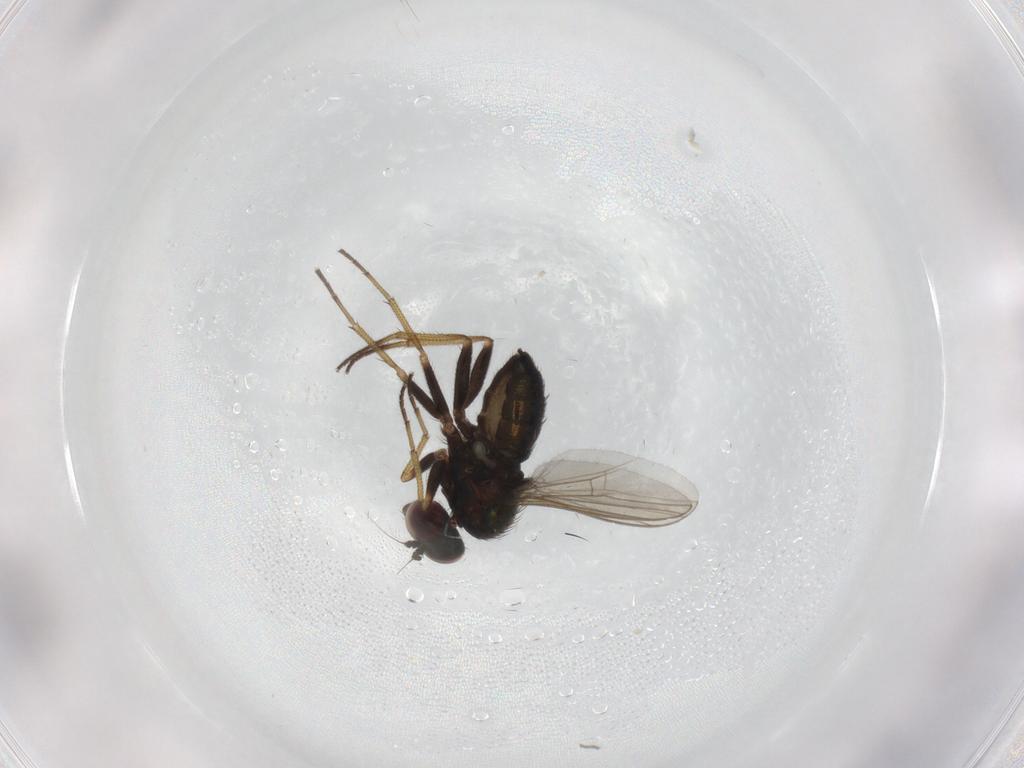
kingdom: Animalia
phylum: Arthropoda
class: Insecta
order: Diptera
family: Dolichopodidae
